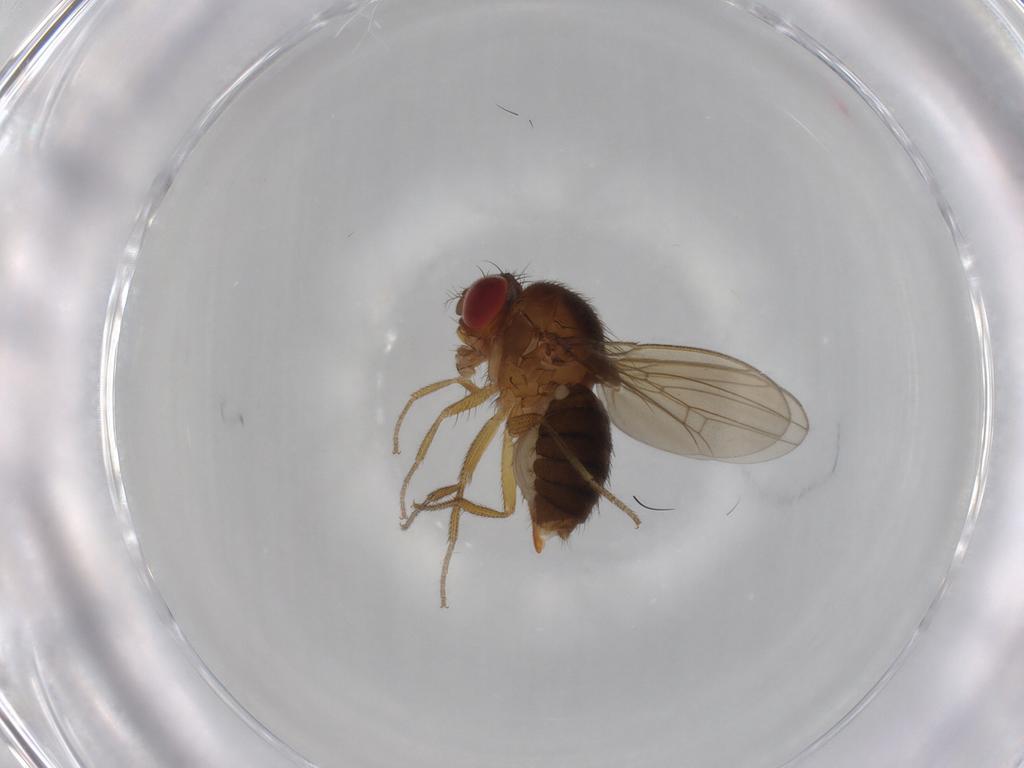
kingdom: Animalia
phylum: Arthropoda
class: Insecta
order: Diptera
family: Drosophilidae
